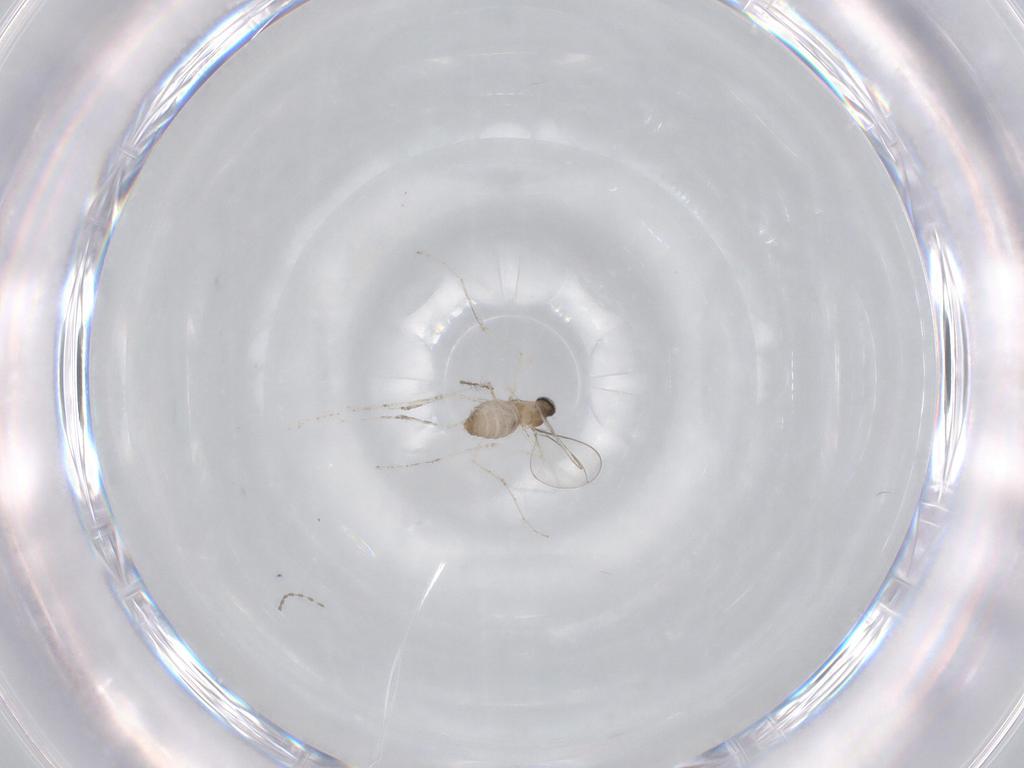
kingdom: Animalia
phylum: Arthropoda
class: Insecta
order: Diptera
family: Cecidomyiidae
